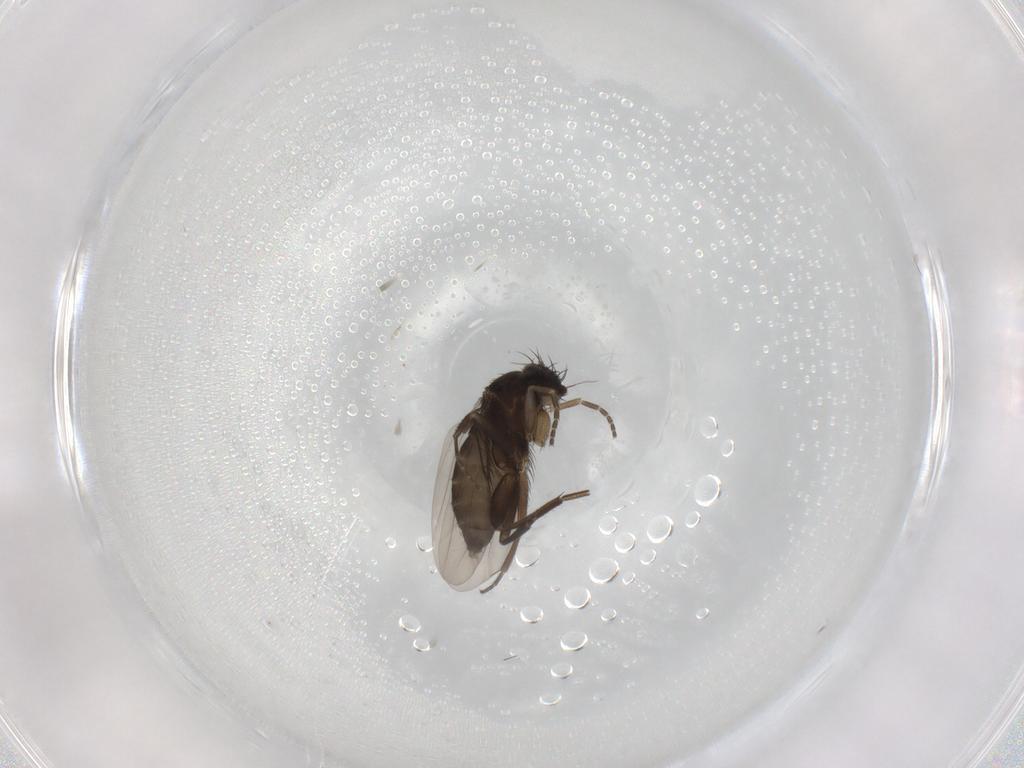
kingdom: Animalia
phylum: Arthropoda
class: Insecta
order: Diptera
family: Phoridae
